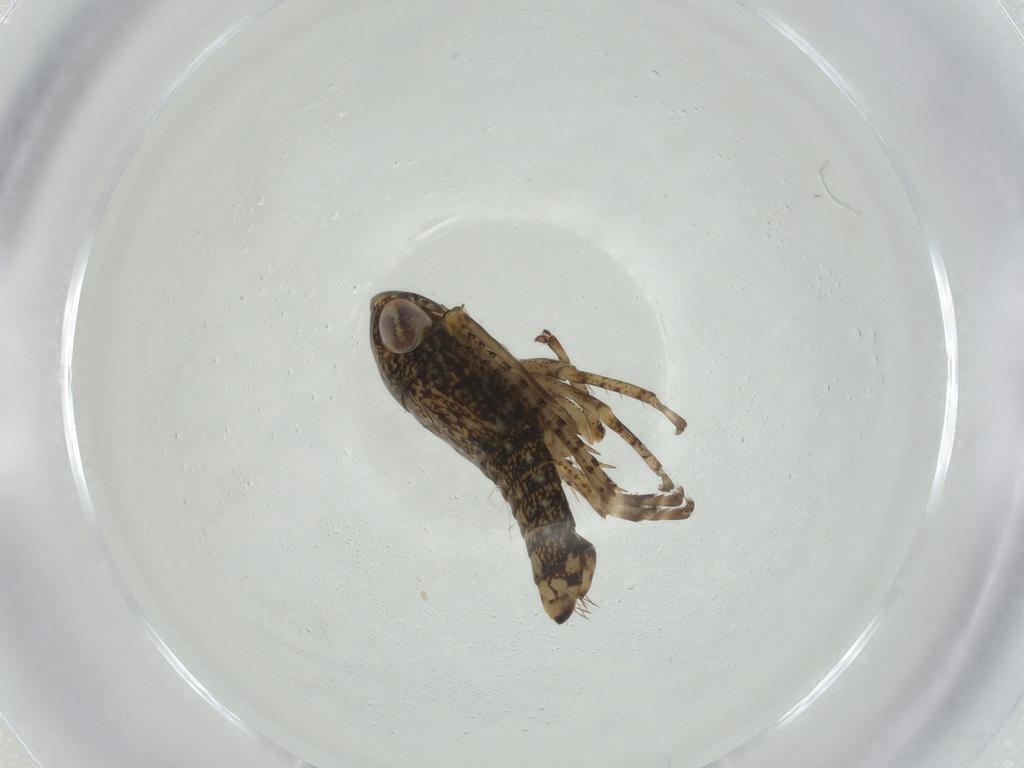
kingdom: Animalia
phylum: Arthropoda
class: Insecta
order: Hemiptera
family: Cicadellidae
